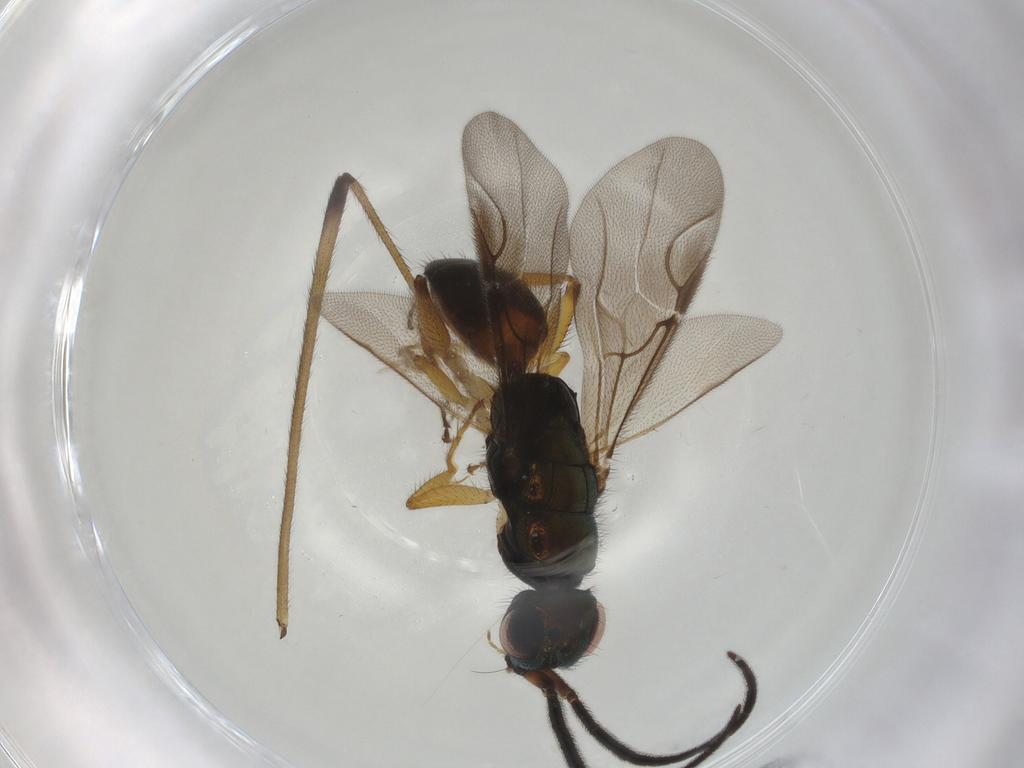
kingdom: Animalia
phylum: Arthropoda
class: Insecta
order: Hymenoptera
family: Chrysididae
